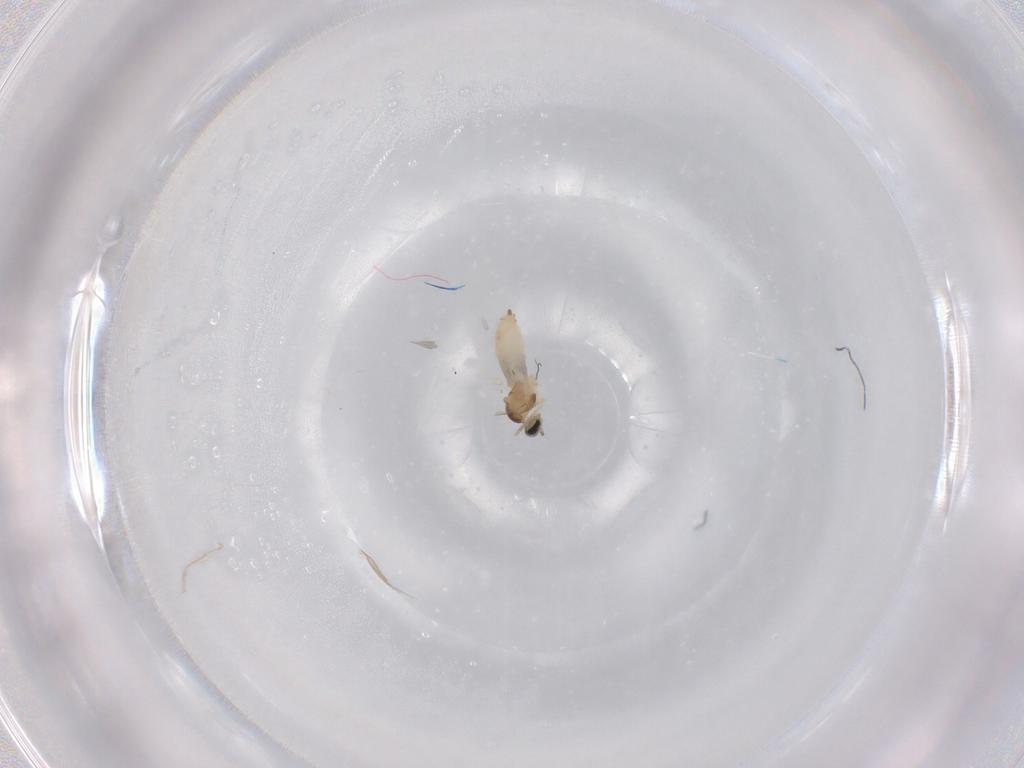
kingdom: Animalia
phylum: Arthropoda
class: Insecta
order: Diptera
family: Cecidomyiidae
